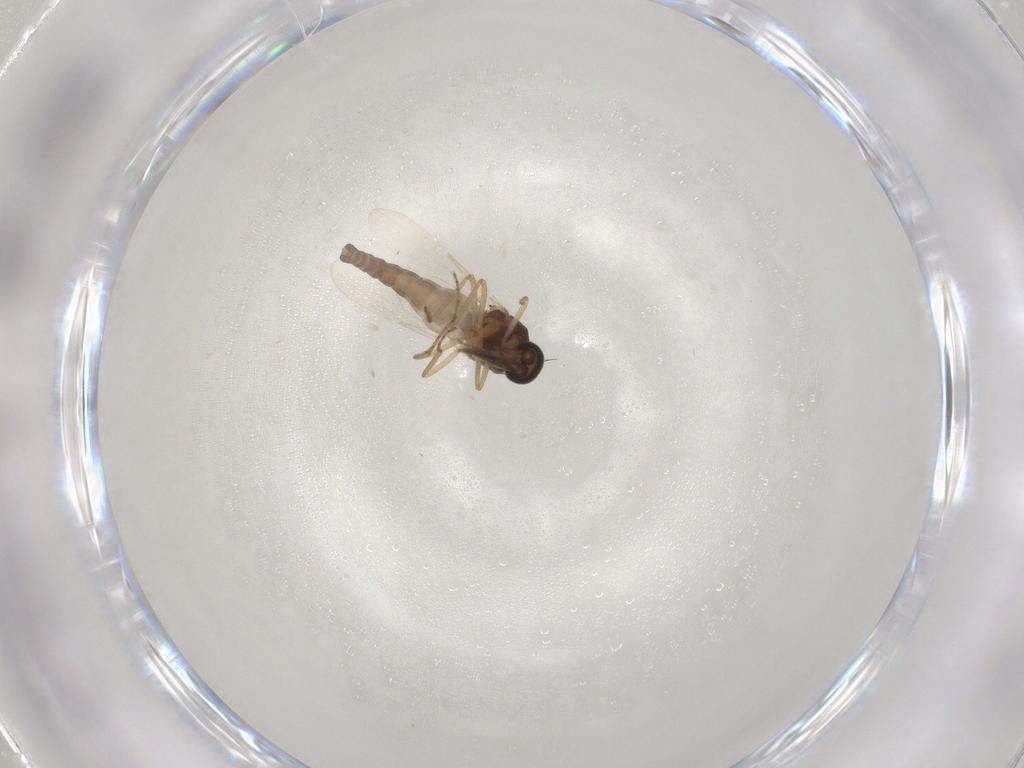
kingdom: Animalia
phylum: Arthropoda
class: Insecta
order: Diptera
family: Ceratopogonidae
